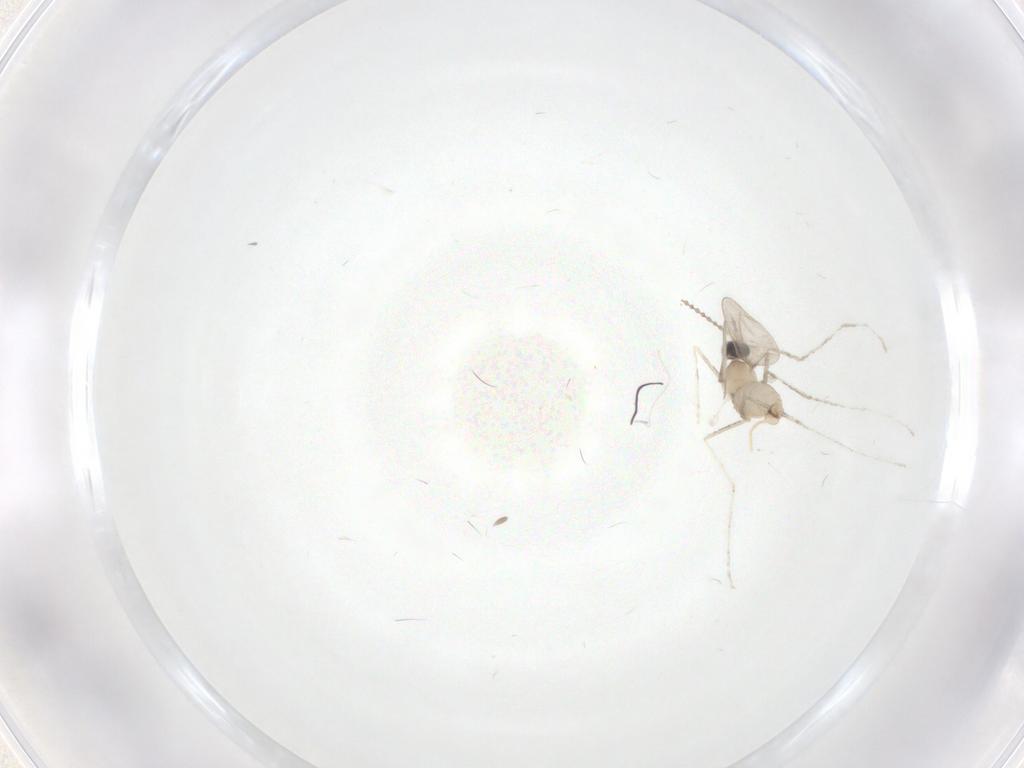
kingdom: Animalia
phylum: Arthropoda
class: Insecta
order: Diptera
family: Cecidomyiidae
